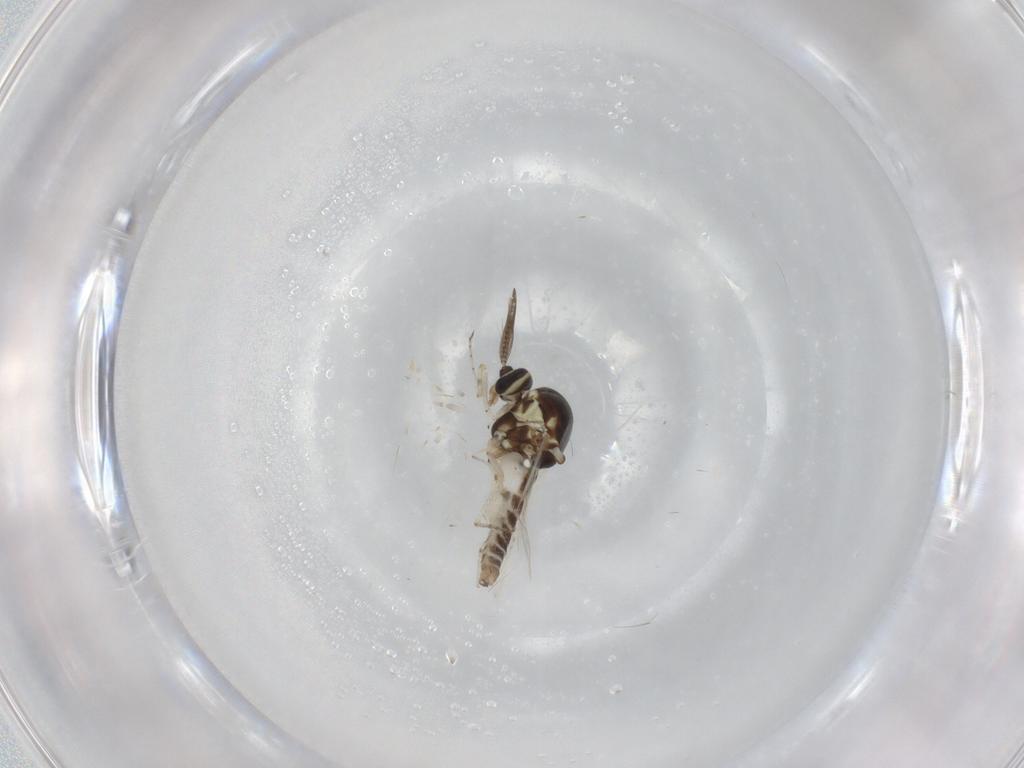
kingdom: Animalia
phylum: Arthropoda
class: Insecta
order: Diptera
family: Ceratopogonidae
